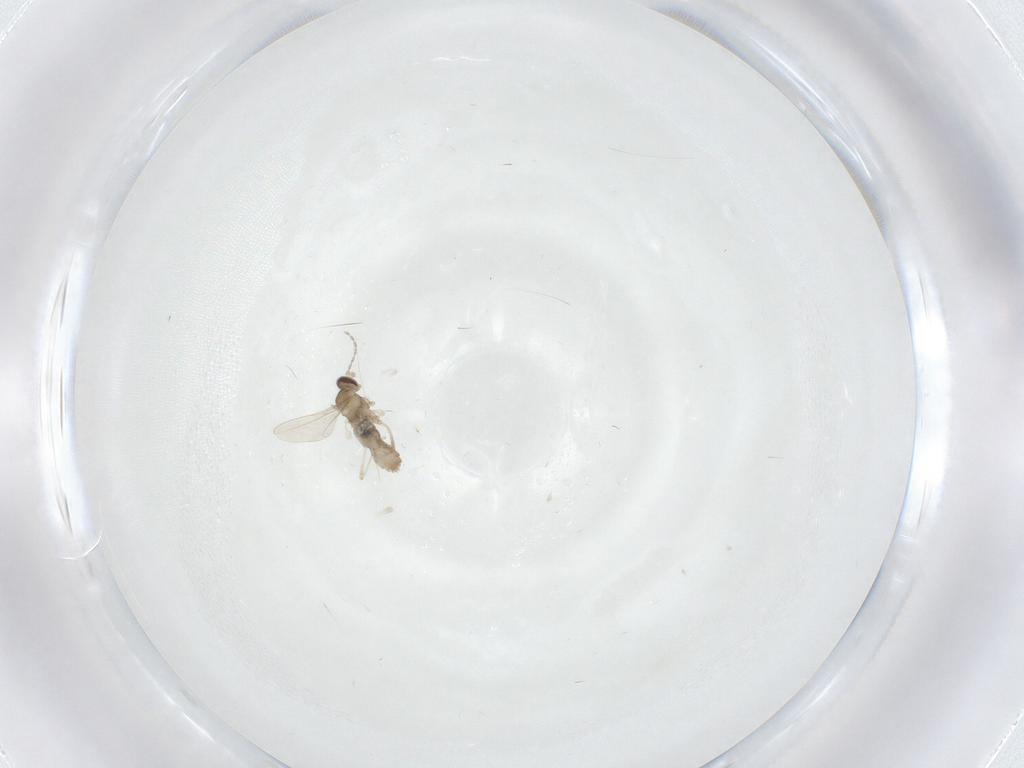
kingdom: Animalia
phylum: Arthropoda
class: Insecta
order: Diptera
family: Cecidomyiidae
